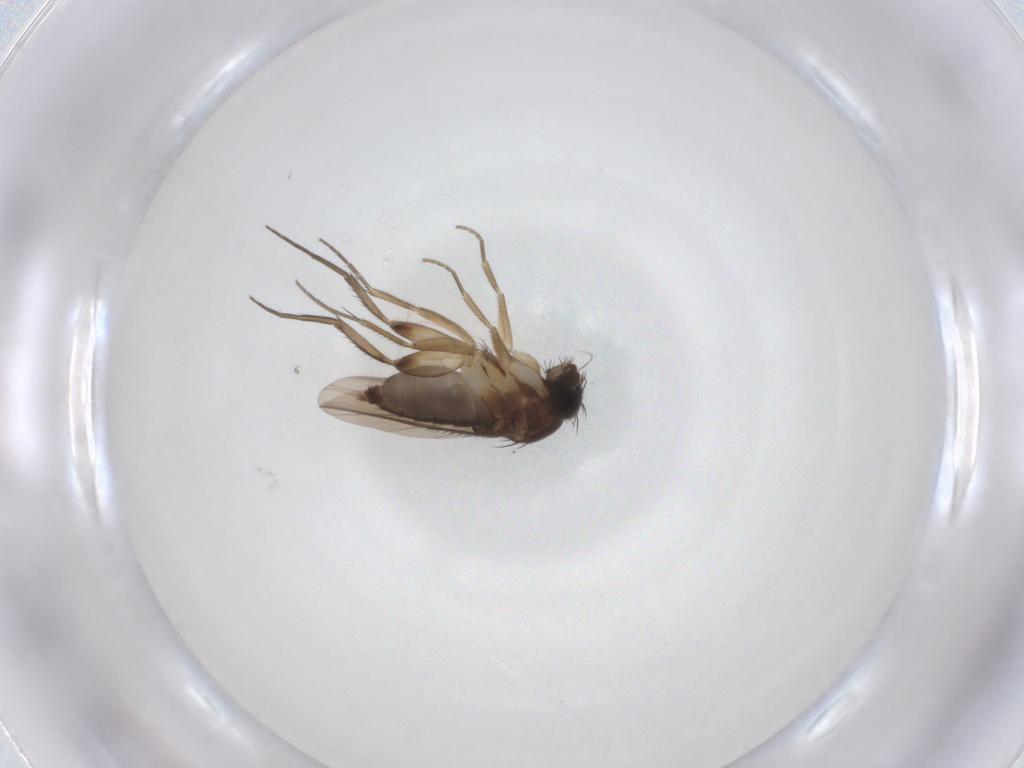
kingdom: Animalia
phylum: Arthropoda
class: Insecta
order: Diptera
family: Phoridae
